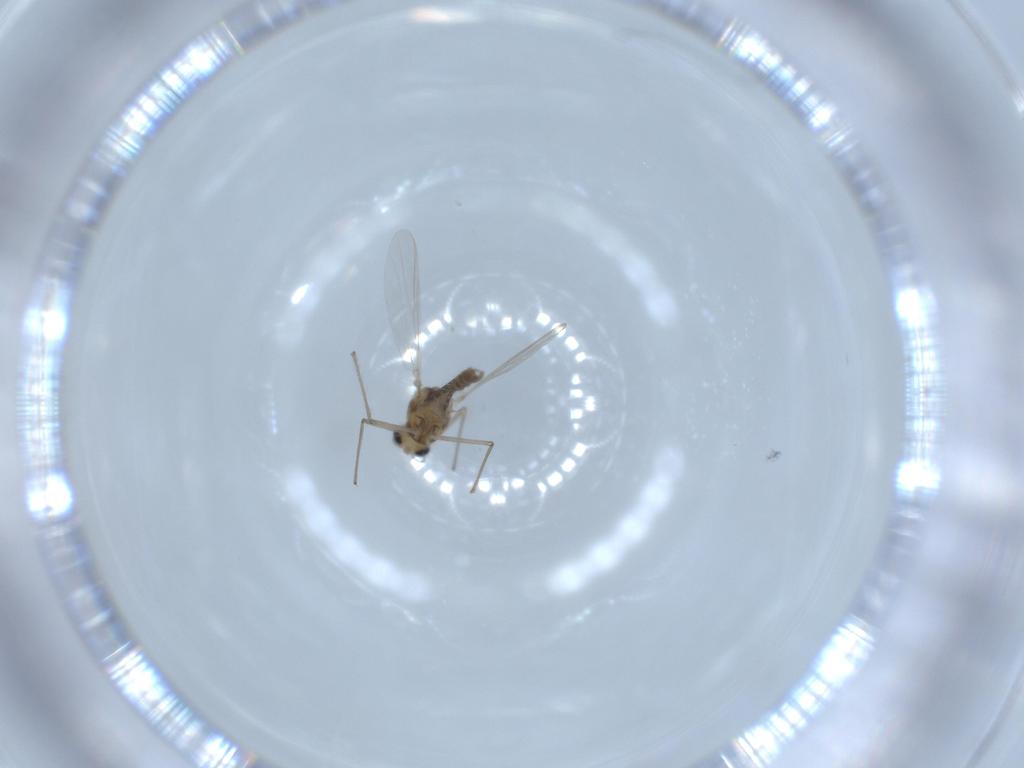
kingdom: Animalia
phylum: Arthropoda
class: Insecta
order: Diptera
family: Chironomidae
